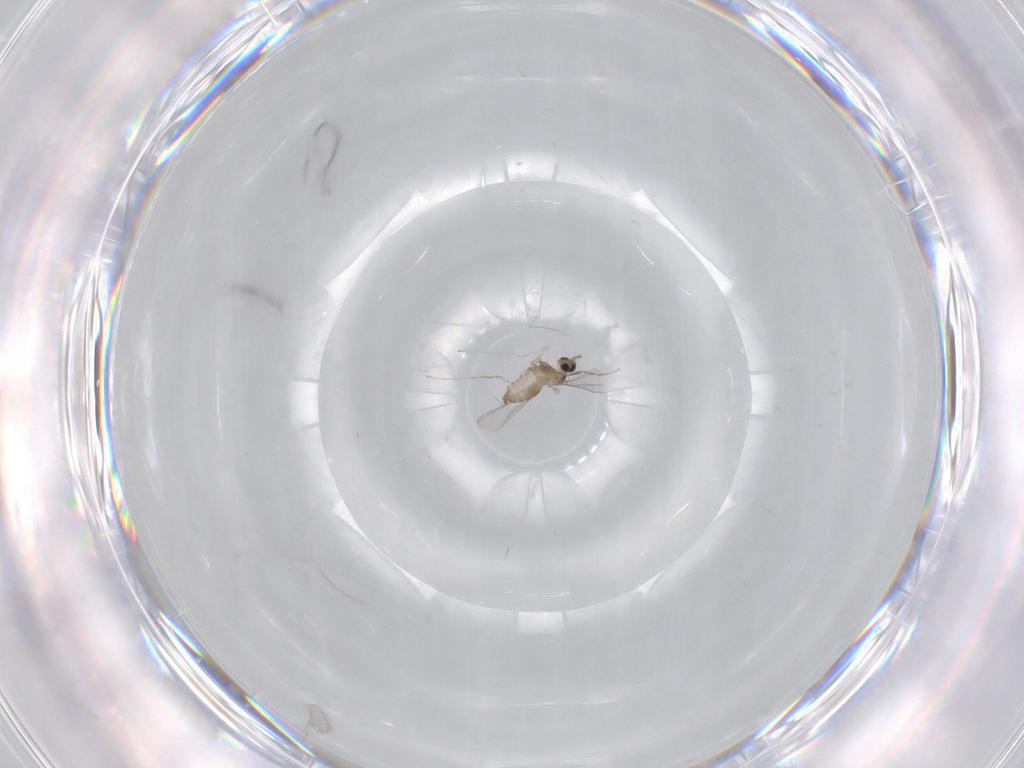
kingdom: Animalia
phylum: Arthropoda
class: Insecta
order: Diptera
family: Cecidomyiidae
